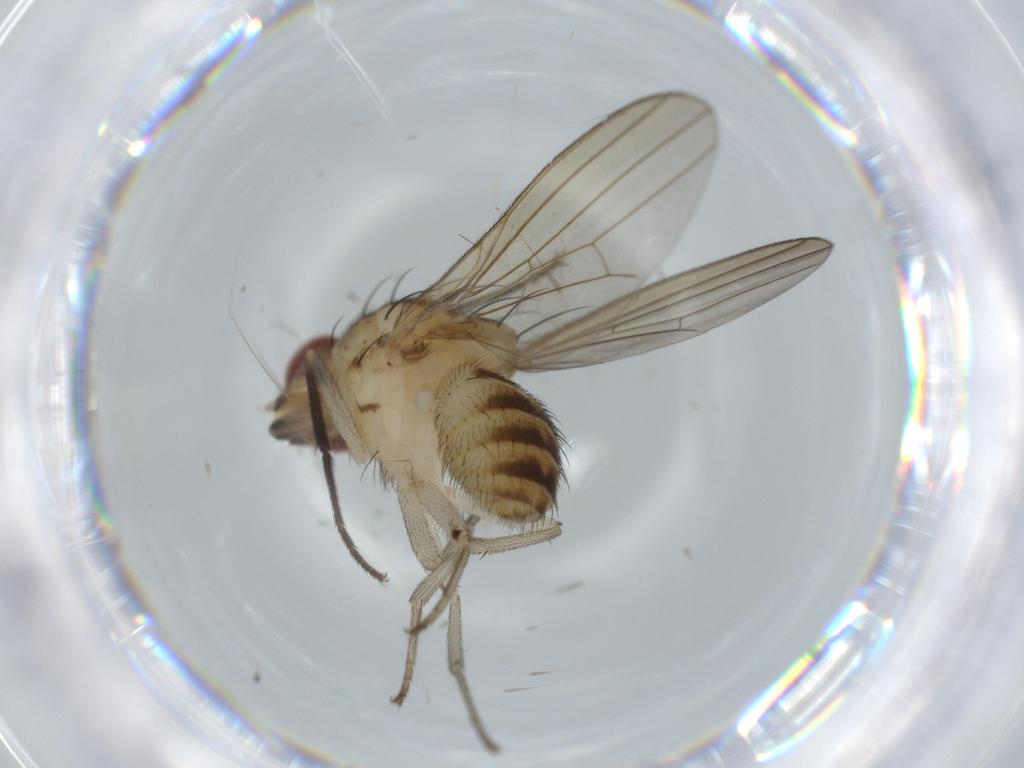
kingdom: Animalia
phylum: Arthropoda
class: Insecta
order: Diptera
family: Lauxaniidae
